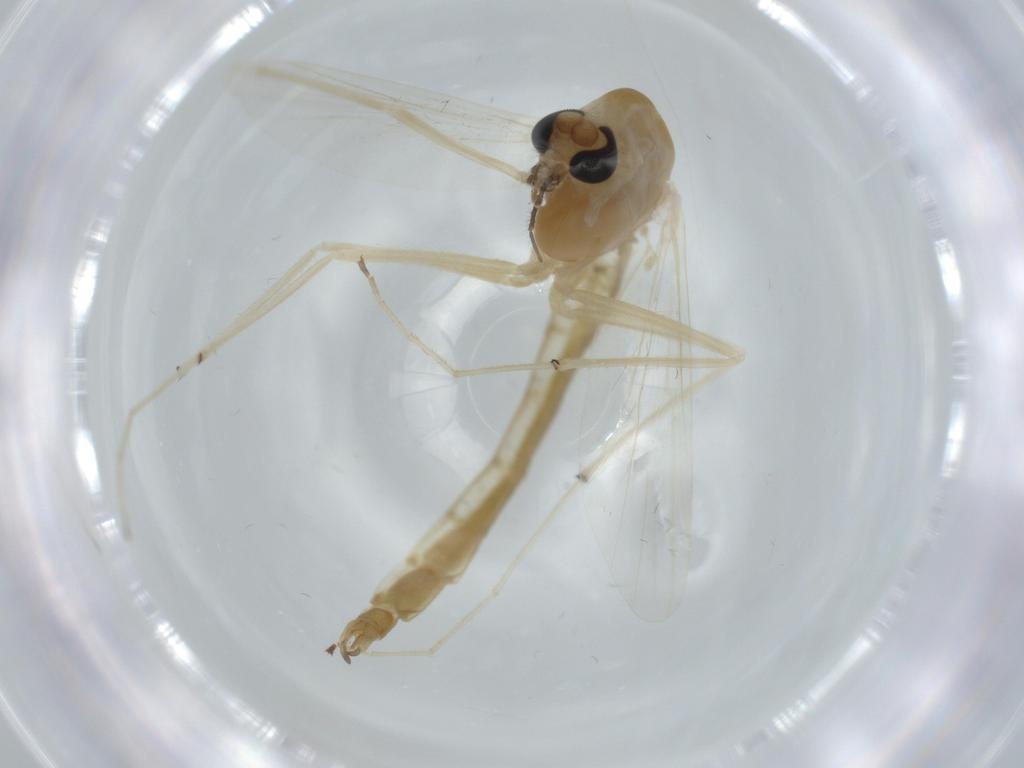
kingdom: Animalia
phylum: Arthropoda
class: Insecta
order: Diptera
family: Chironomidae
